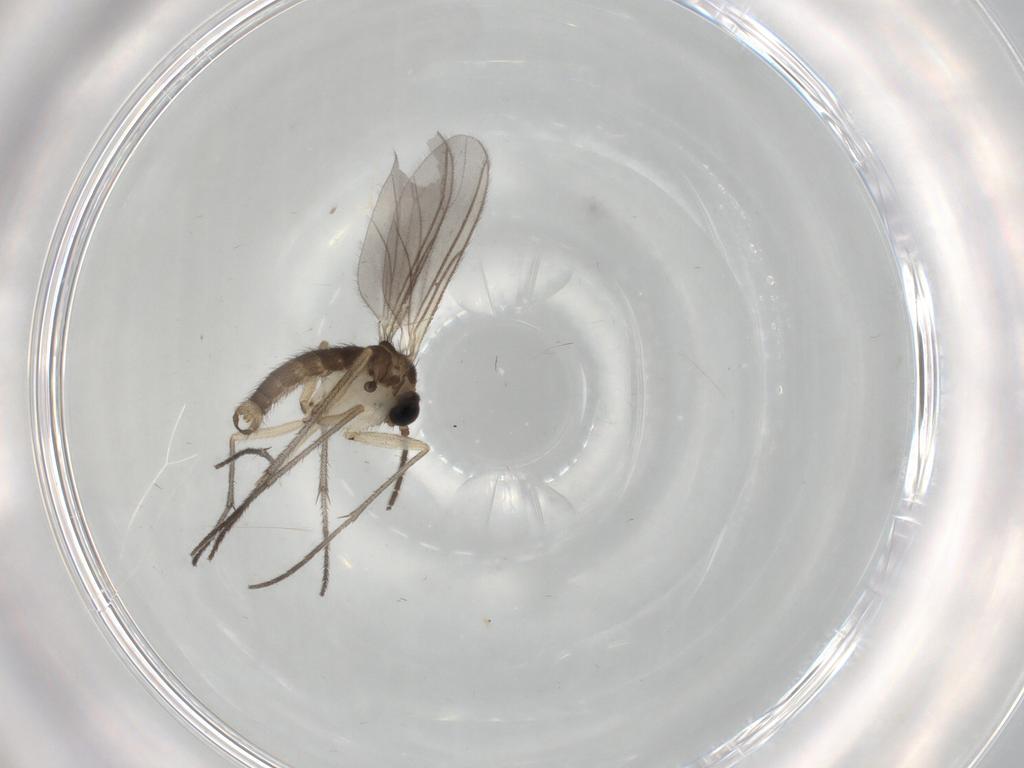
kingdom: Animalia
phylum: Arthropoda
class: Insecta
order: Diptera
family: Sciaridae
